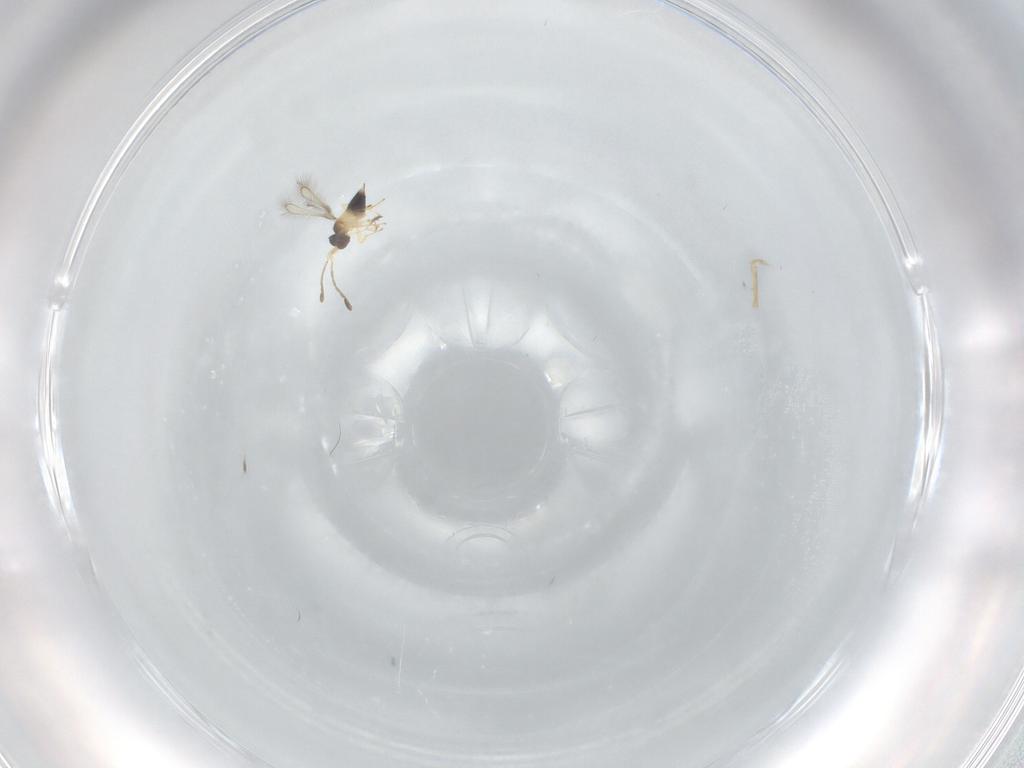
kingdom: Animalia
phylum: Arthropoda
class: Insecta
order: Hymenoptera
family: Mymaridae
